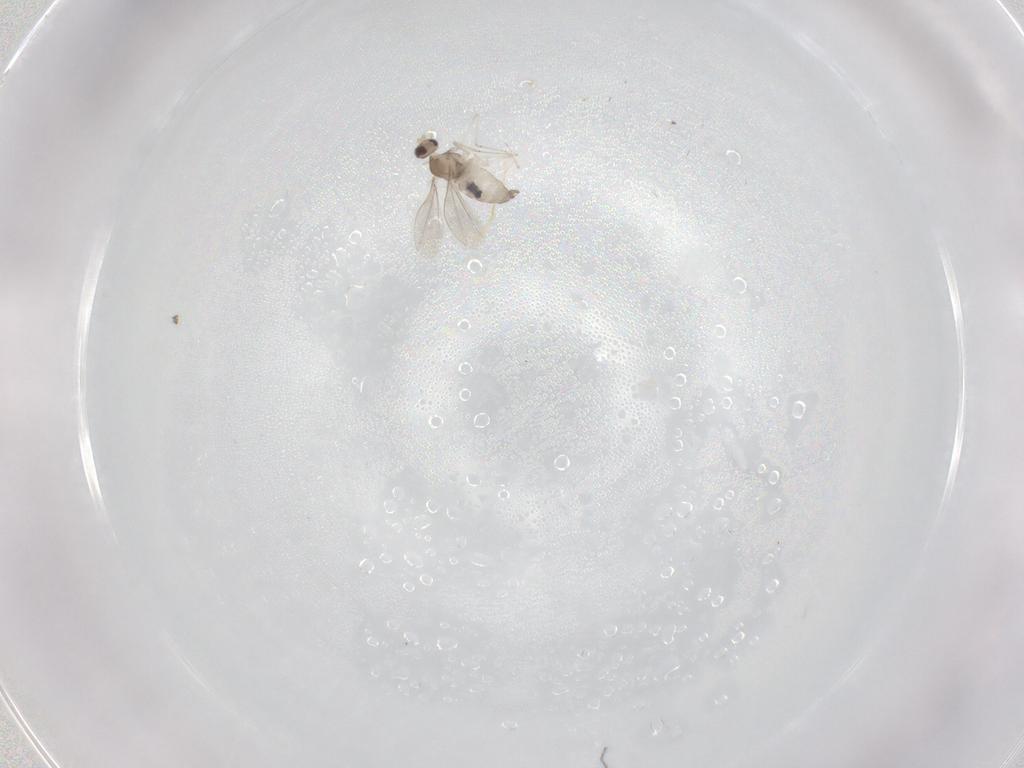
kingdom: Animalia
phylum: Arthropoda
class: Insecta
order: Diptera
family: Cecidomyiidae
